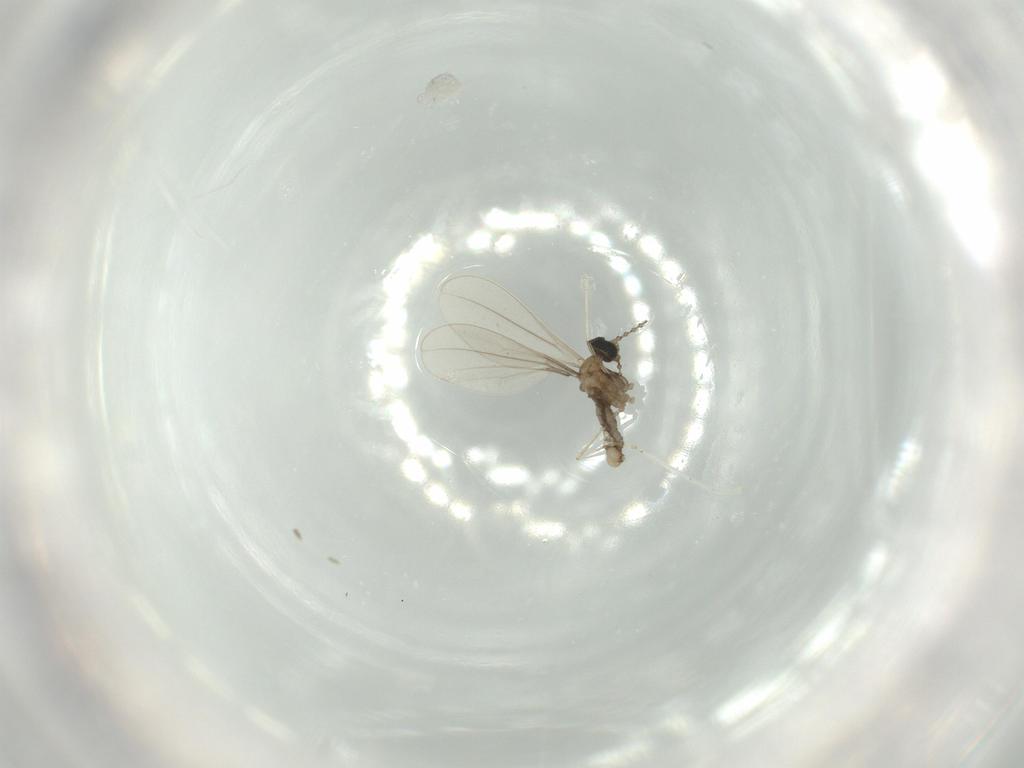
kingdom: Animalia
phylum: Arthropoda
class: Insecta
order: Diptera
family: Cecidomyiidae
